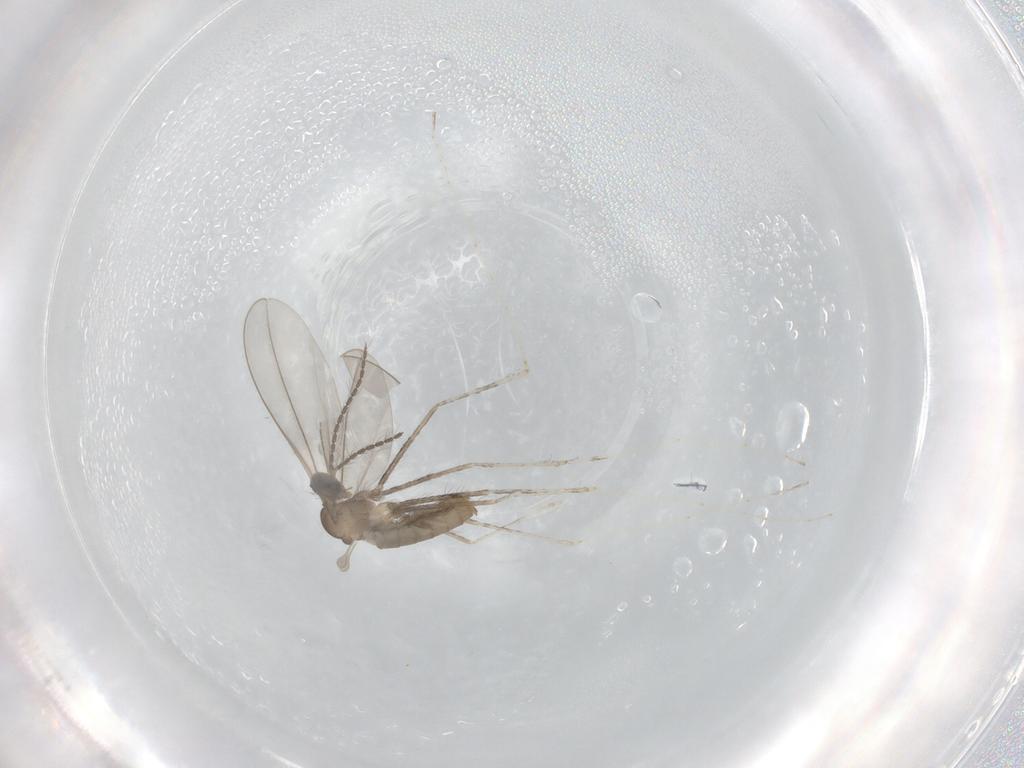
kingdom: Animalia
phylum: Arthropoda
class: Insecta
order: Diptera
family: Cecidomyiidae
